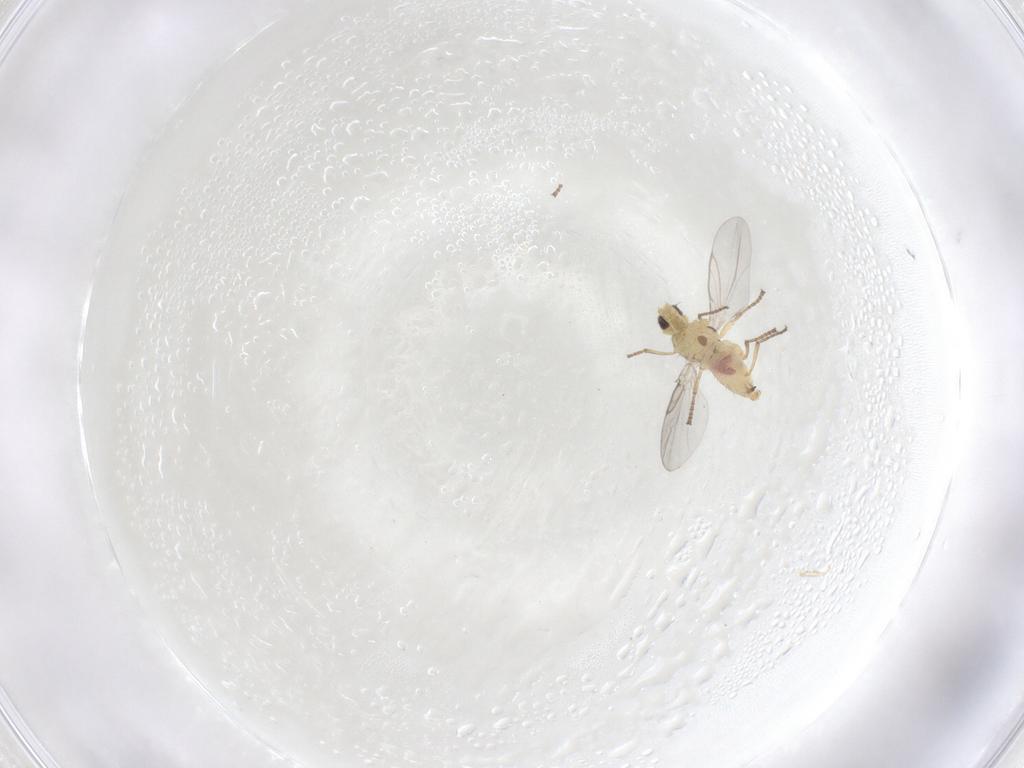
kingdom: Animalia
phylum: Arthropoda
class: Insecta
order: Diptera
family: Agromyzidae
